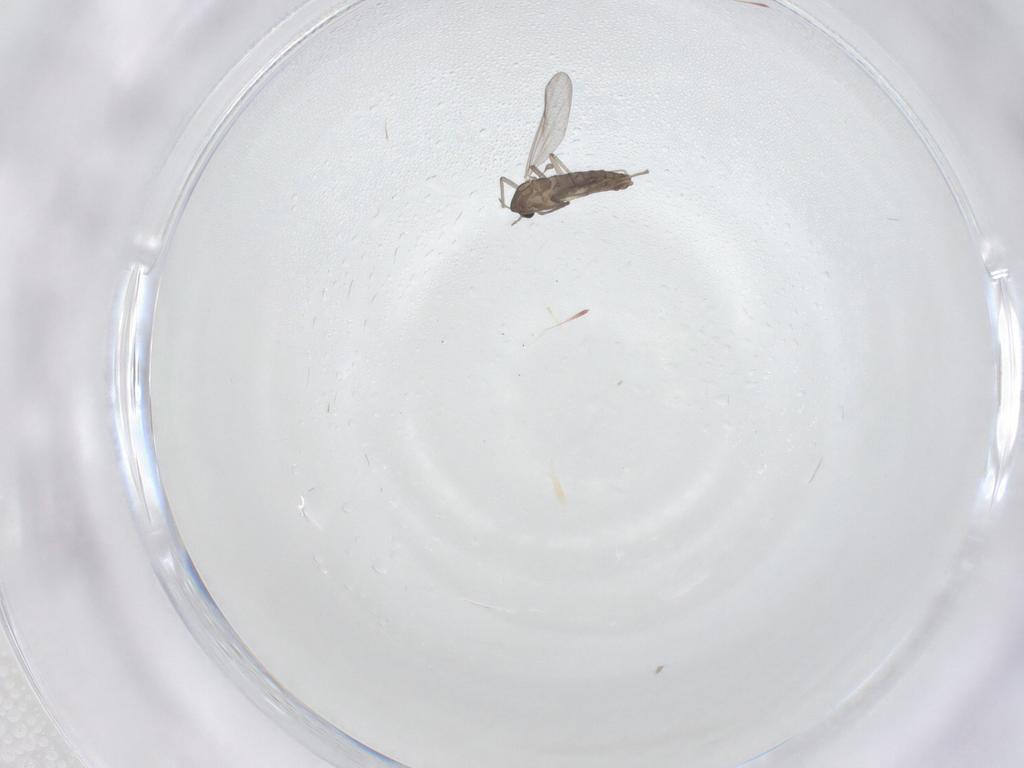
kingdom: Animalia
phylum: Arthropoda
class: Insecta
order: Diptera
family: Chironomidae
